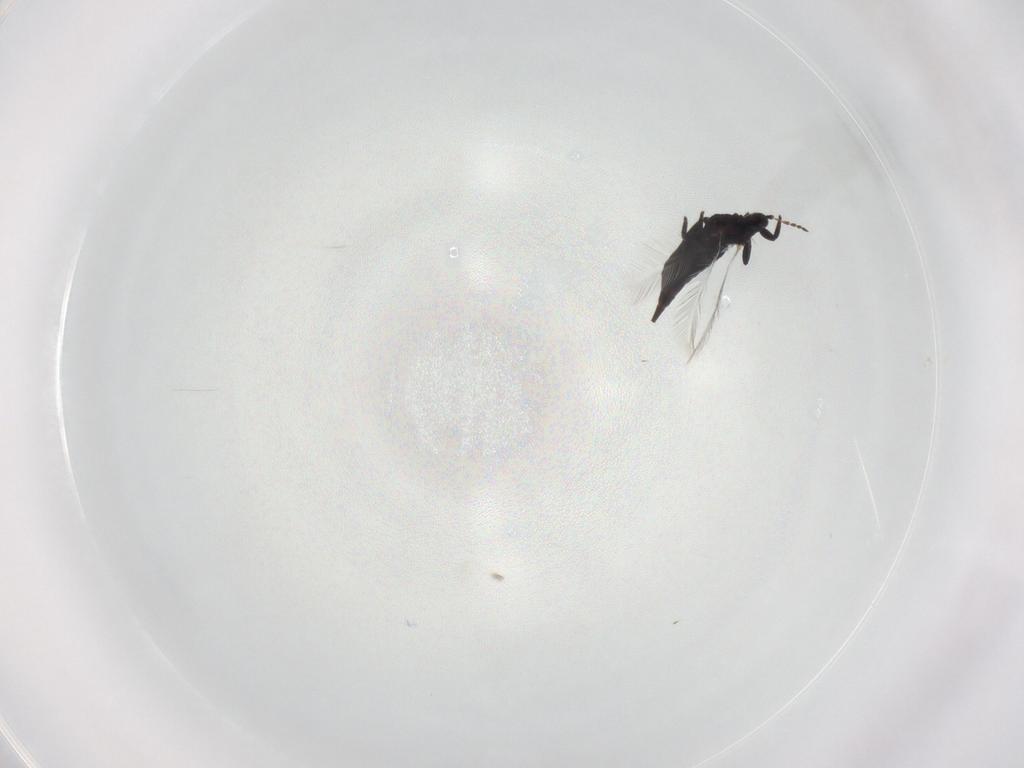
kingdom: Animalia
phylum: Arthropoda
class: Insecta
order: Thysanoptera
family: Phlaeothripidae
